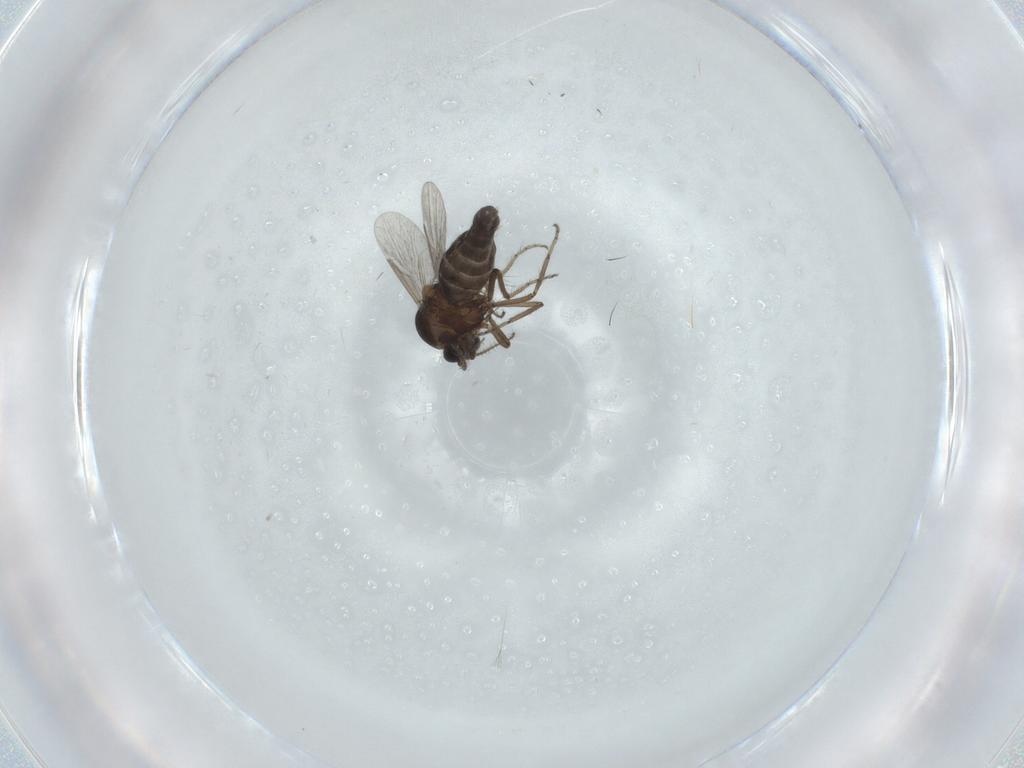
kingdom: Animalia
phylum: Arthropoda
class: Insecta
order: Diptera
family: Ceratopogonidae
